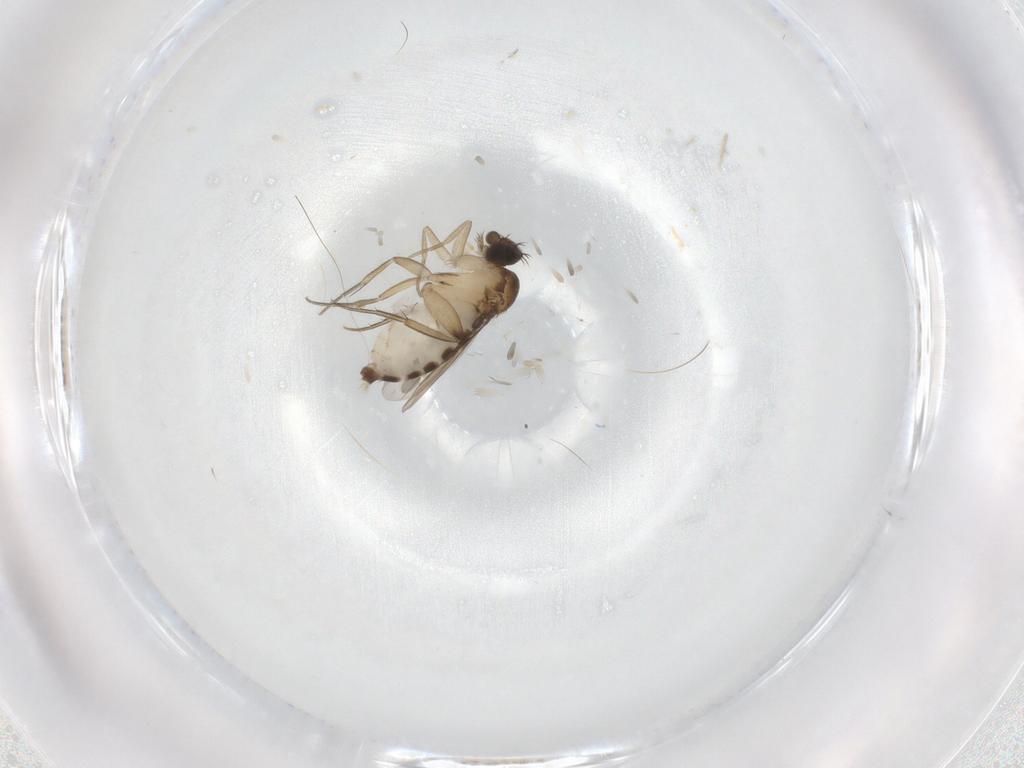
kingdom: Animalia
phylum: Arthropoda
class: Insecta
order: Diptera
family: Phoridae
